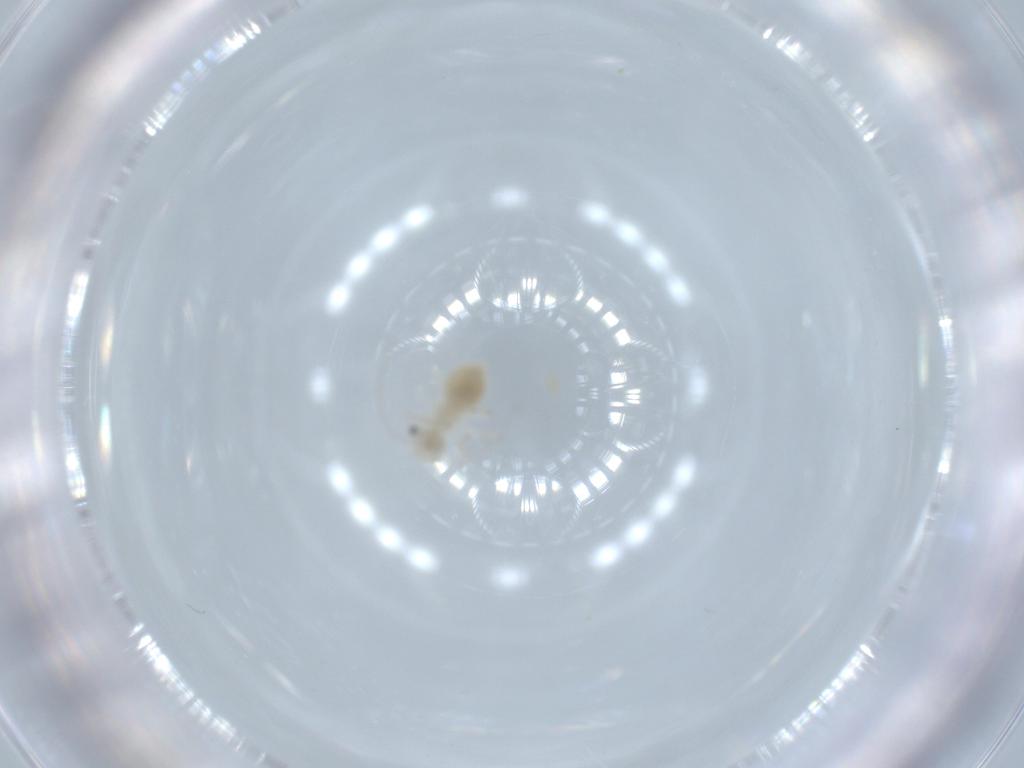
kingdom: Animalia
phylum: Arthropoda
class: Insecta
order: Psocodea
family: Caeciliusidae
